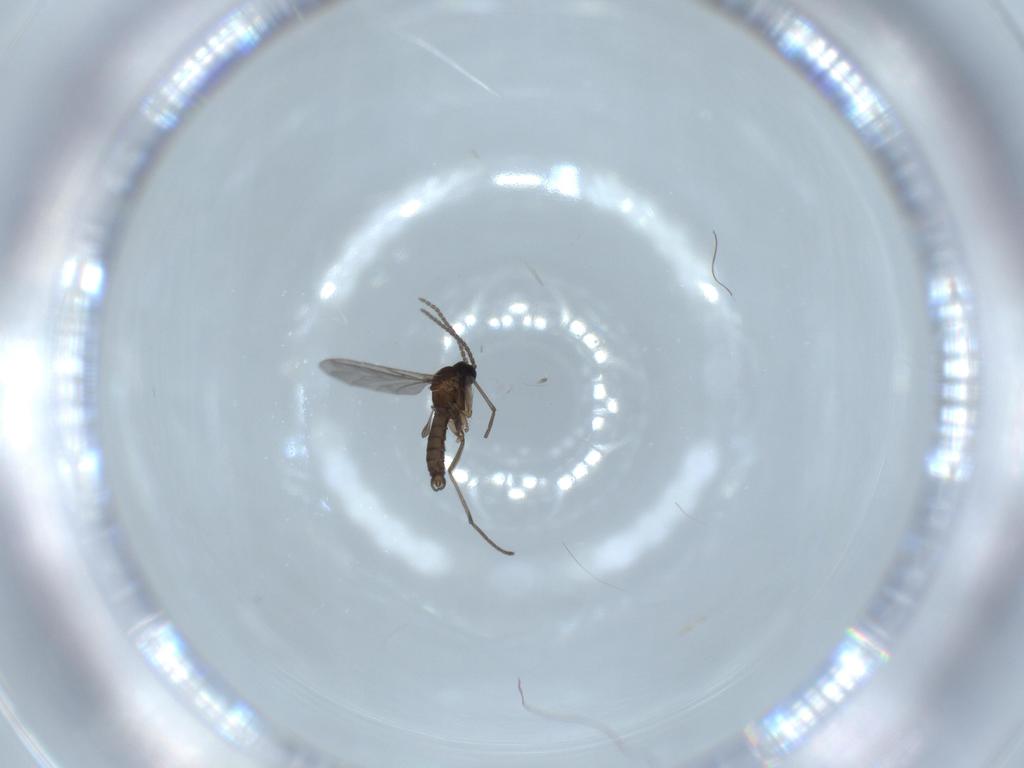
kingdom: Animalia
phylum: Arthropoda
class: Insecta
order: Diptera
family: Sciaridae
